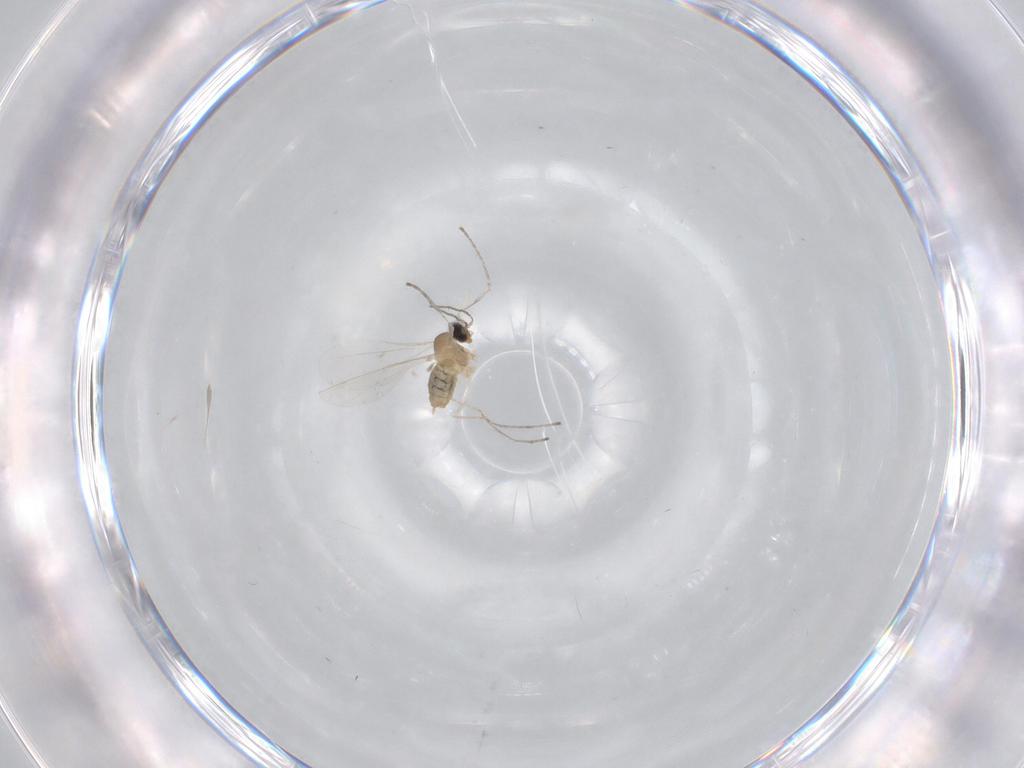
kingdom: Animalia
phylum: Arthropoda
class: Insecta
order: Diptera
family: Cecidomyiidae
